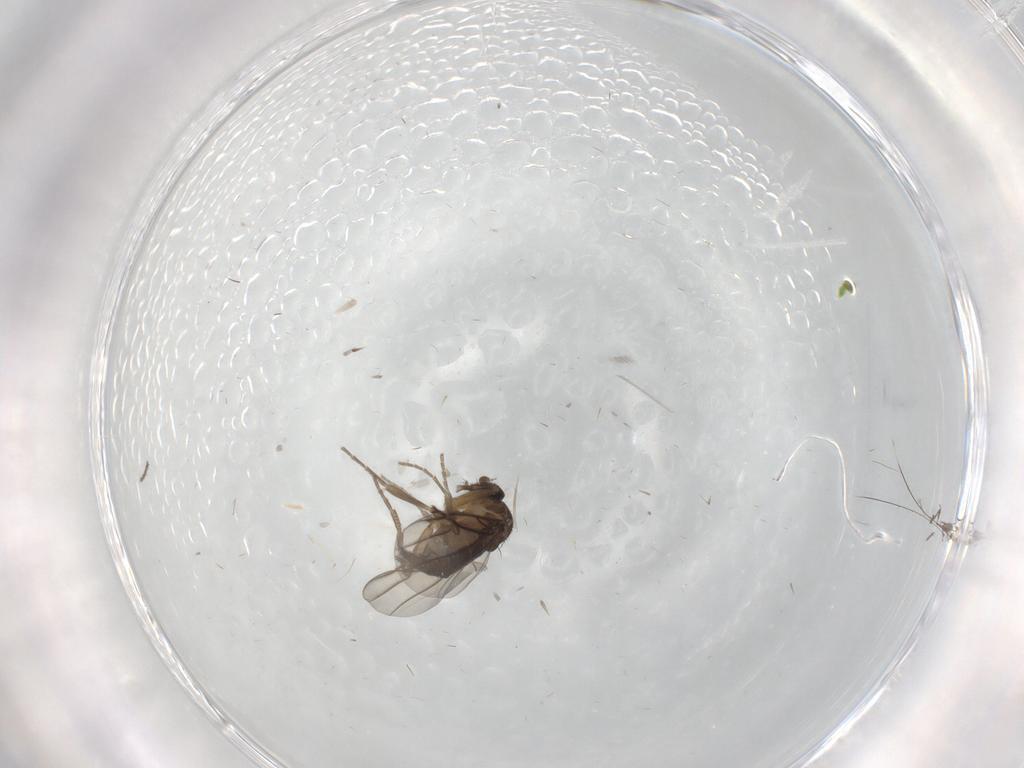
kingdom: Animalia
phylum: Arthropoda
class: Insecta
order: Diptera
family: Phoridae
